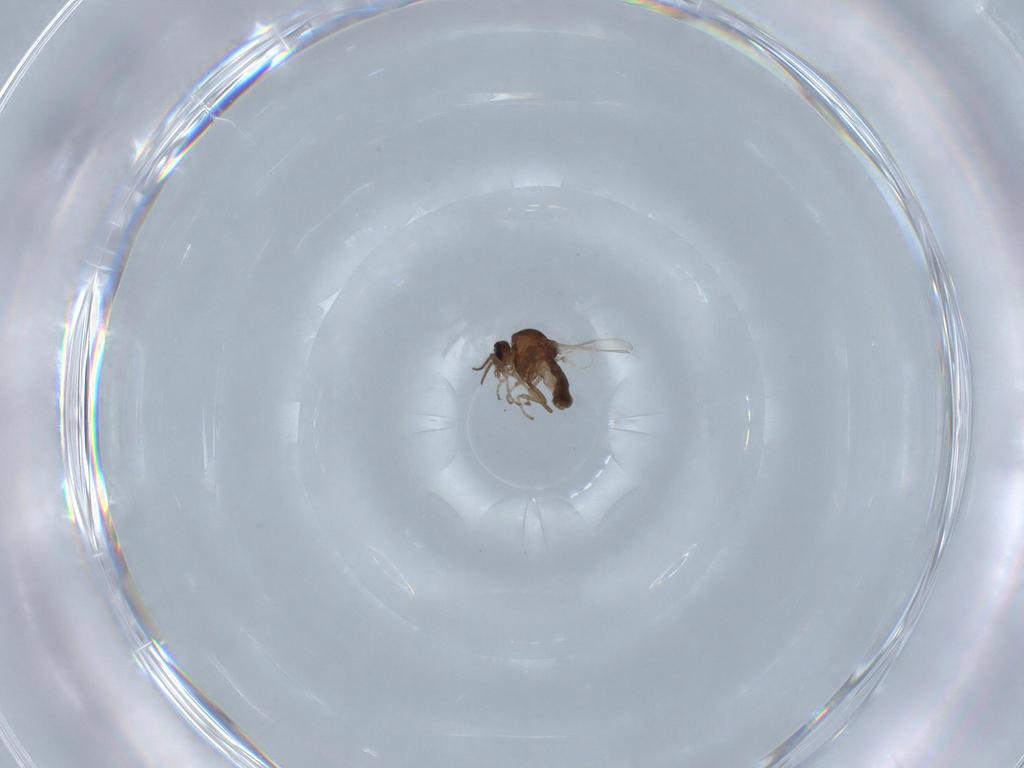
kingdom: Animalia
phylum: Arthropoda
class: Insecta
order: Diptera
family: Ceratopogonidae
